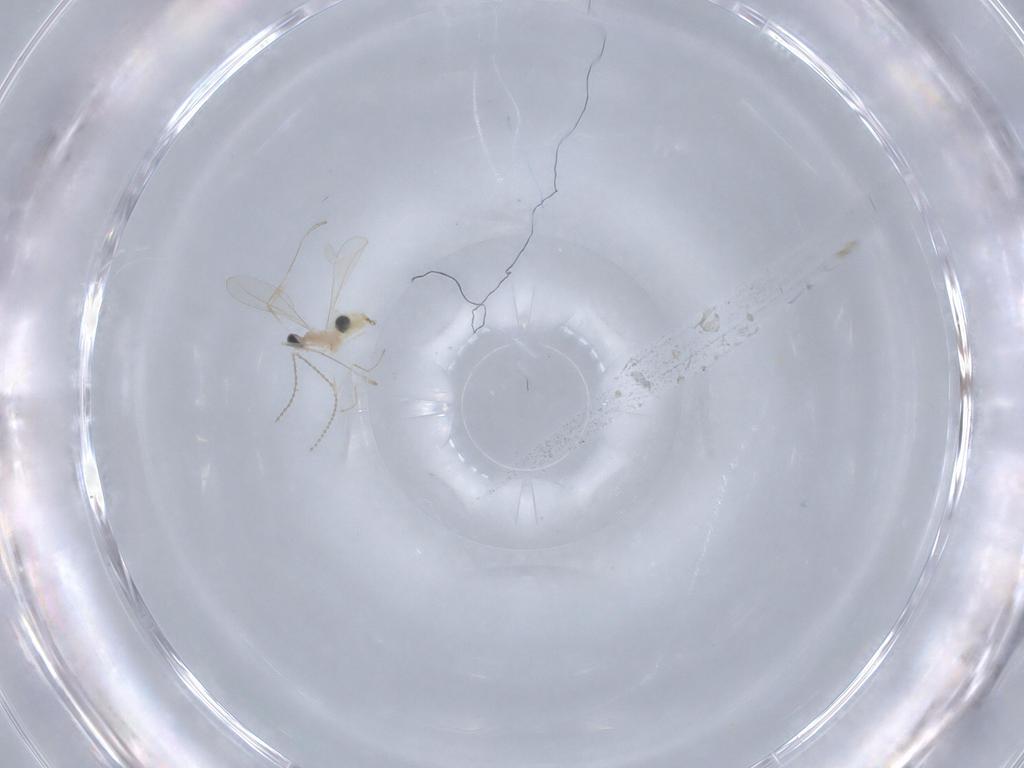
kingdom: Animalia
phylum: Arthropoda
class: Insecta
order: Diptera
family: Cecidomyiidae
